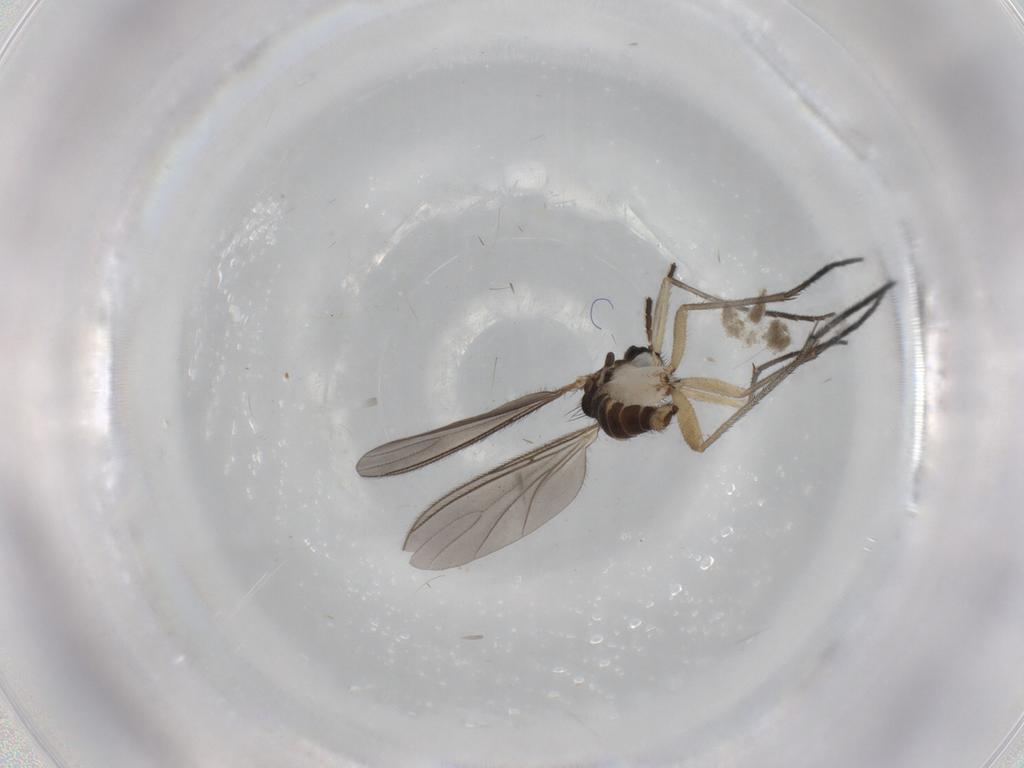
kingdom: Animalia
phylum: Arthropoda
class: Insecta
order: Diptera
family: Sciaridae
